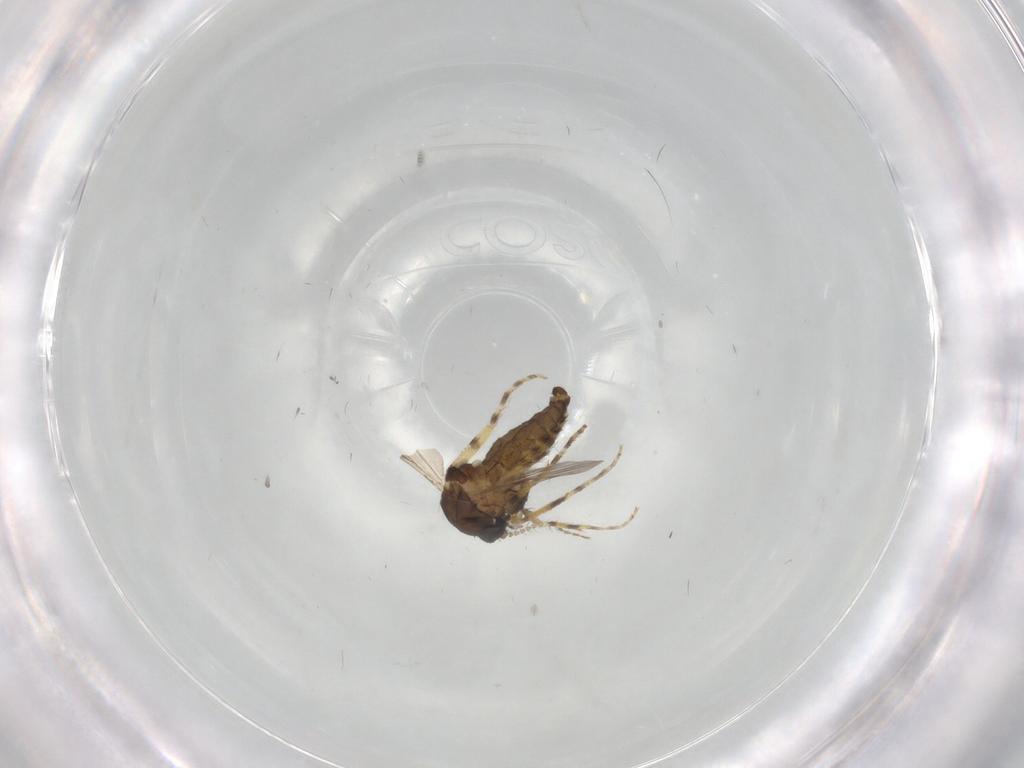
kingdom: Animalia
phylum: Arthropoda
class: Insecta
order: Diptera
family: Ceratopogonidae
